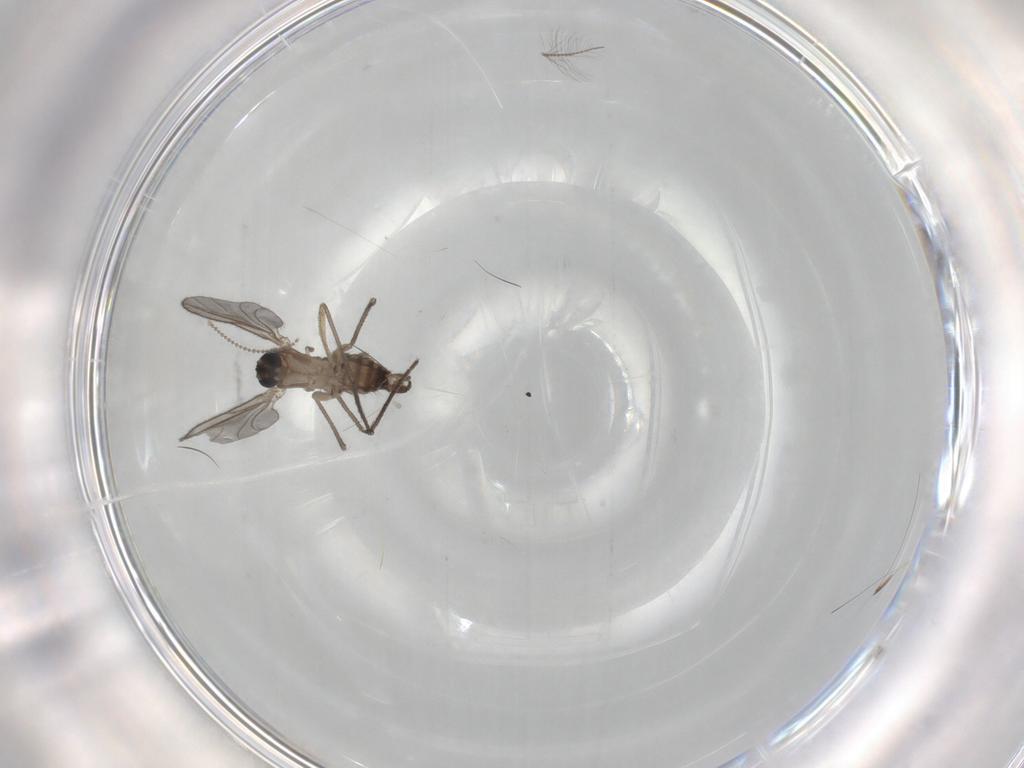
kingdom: Animalia
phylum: Arthropoda
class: Insecta
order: Diptera
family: Sciaridae
